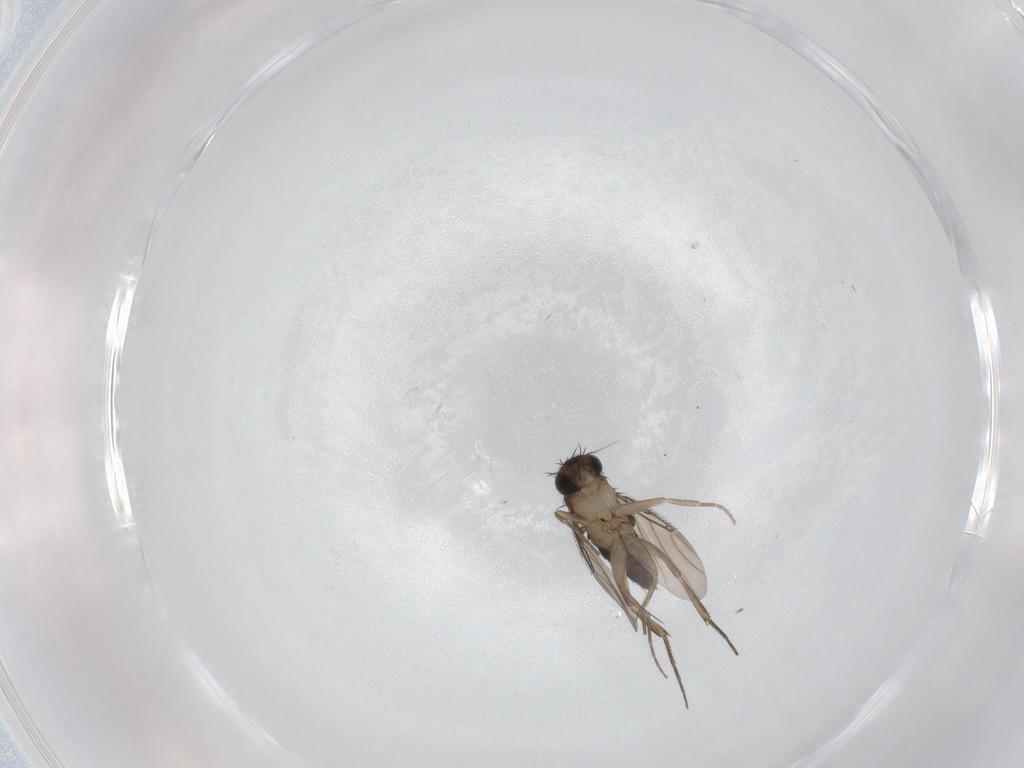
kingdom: Animalia
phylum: Arthropoda
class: Insecta
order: Diptera
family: Phoridae
